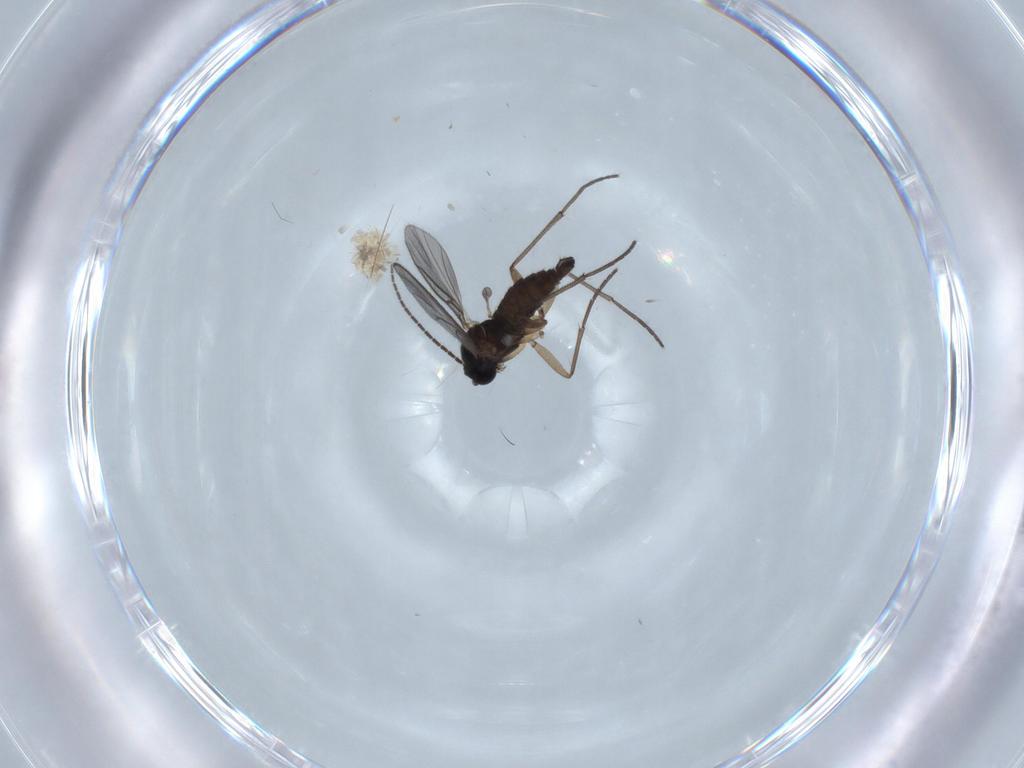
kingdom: Animalia
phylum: Arthropoda
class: Insecta
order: Diptera
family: Sciaridae
